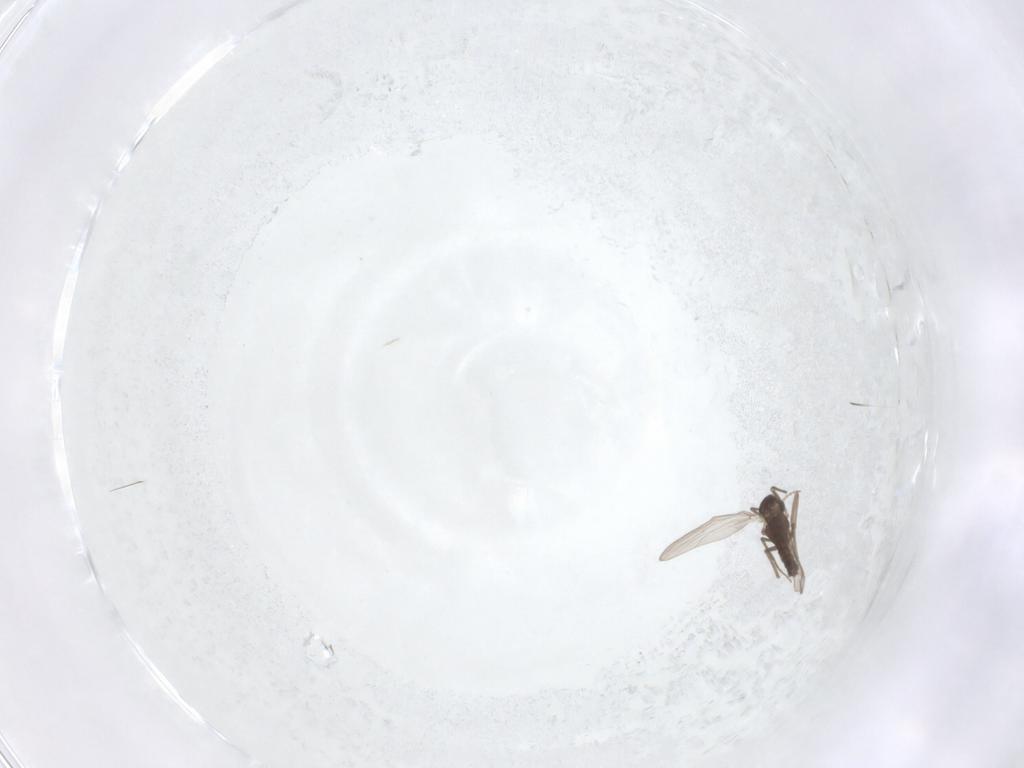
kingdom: Animalia
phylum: Arthropoda
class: Insecta
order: Diptera
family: Chironomidae
